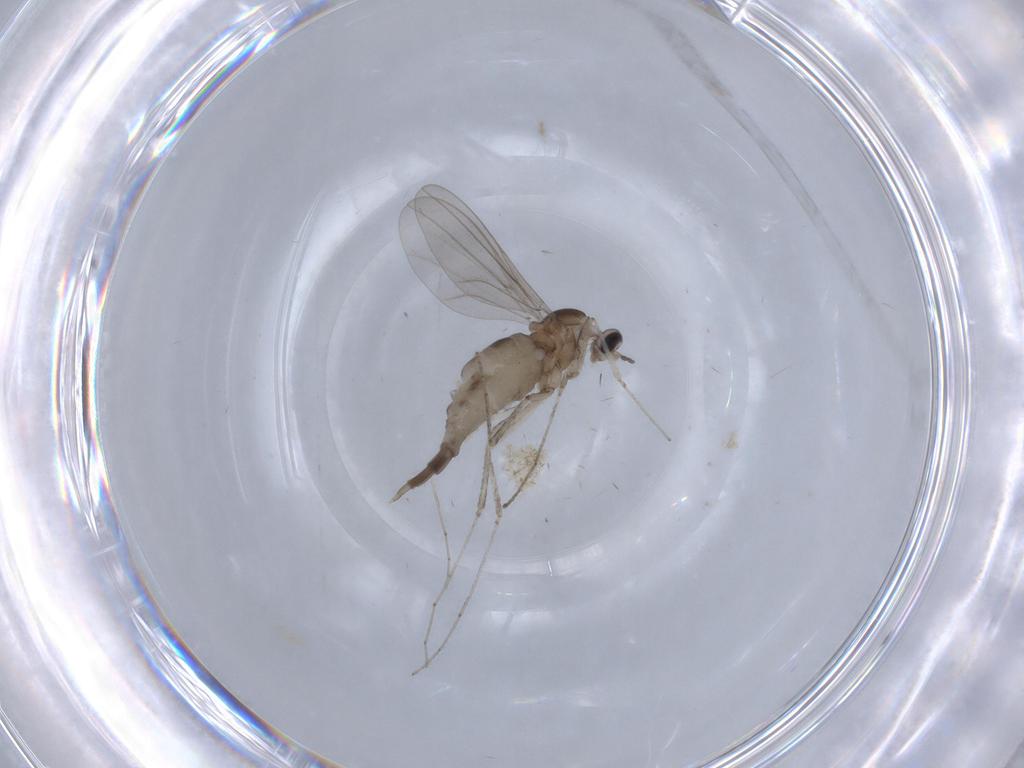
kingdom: Animalia
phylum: Arthropoda
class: Insecta
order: Diptera
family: Cecidomyiidae
